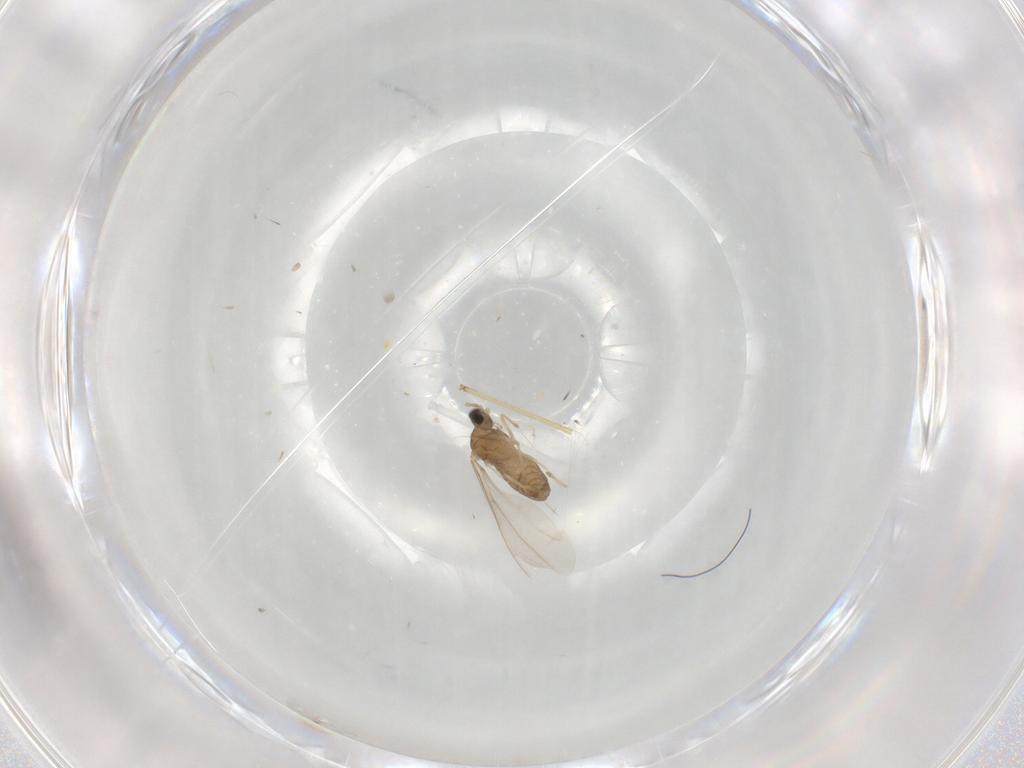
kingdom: Animalia
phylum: Arthropoda
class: Insecta
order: Diptera
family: Cecidomyiidae
